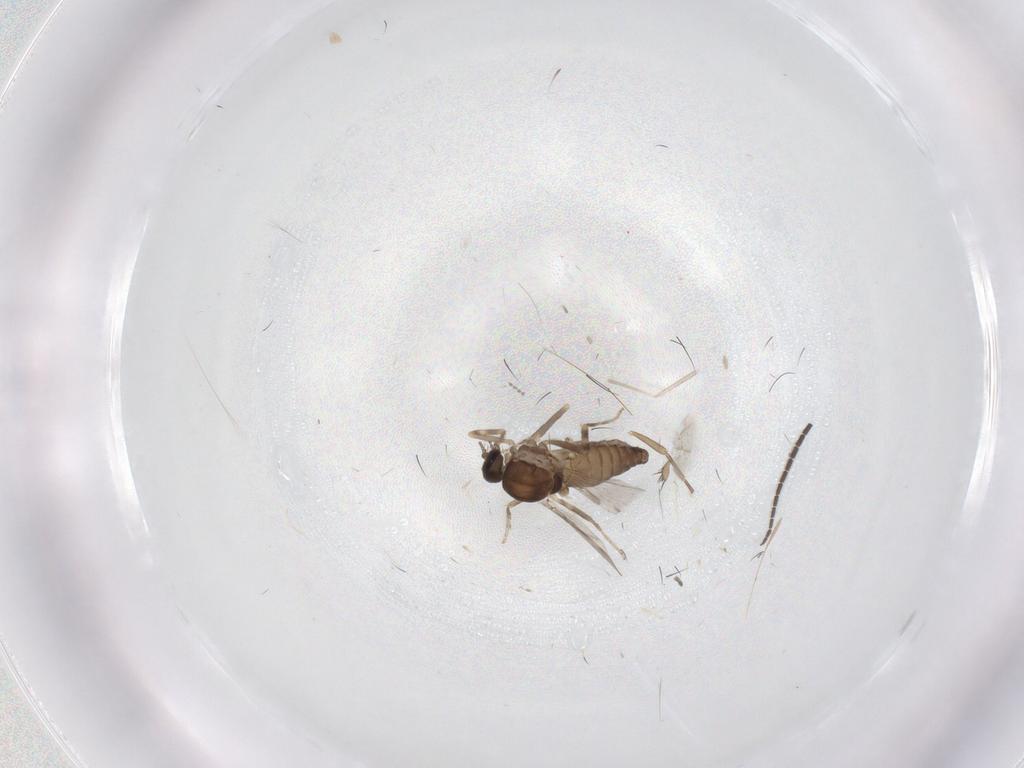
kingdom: Animalia
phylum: Arthropoda
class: Insecta
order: Diptera
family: Ceratopogonidae
